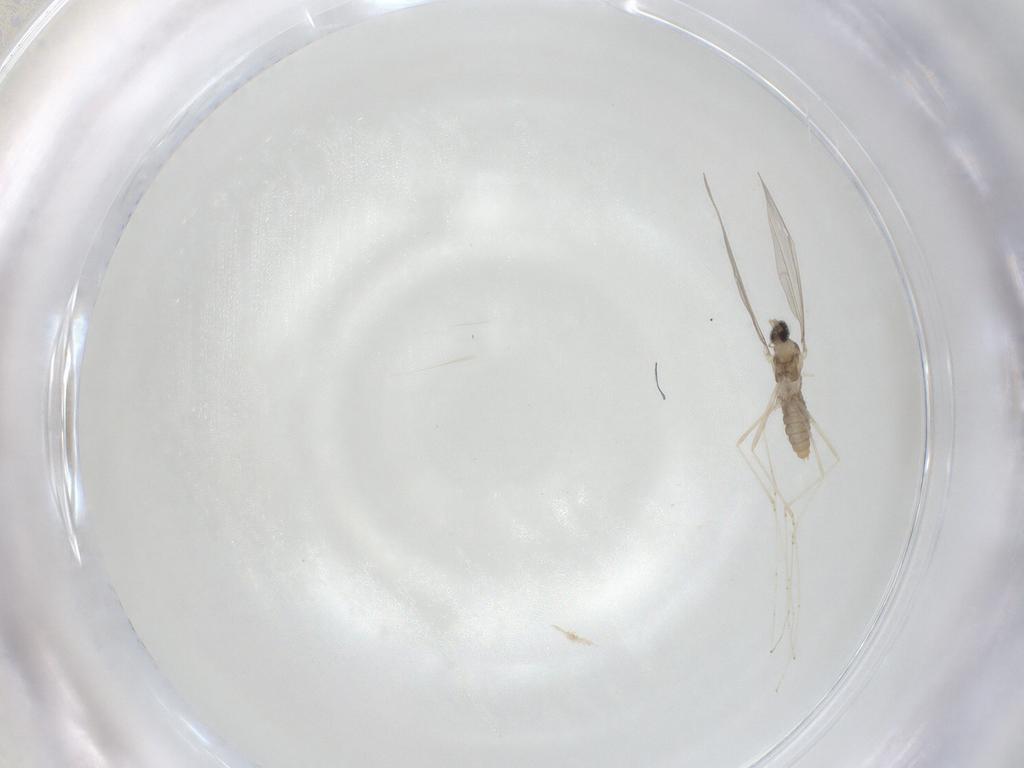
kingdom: Animalia
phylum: Arthropoda
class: Insecta
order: Diptera
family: Cecidomyiidae
